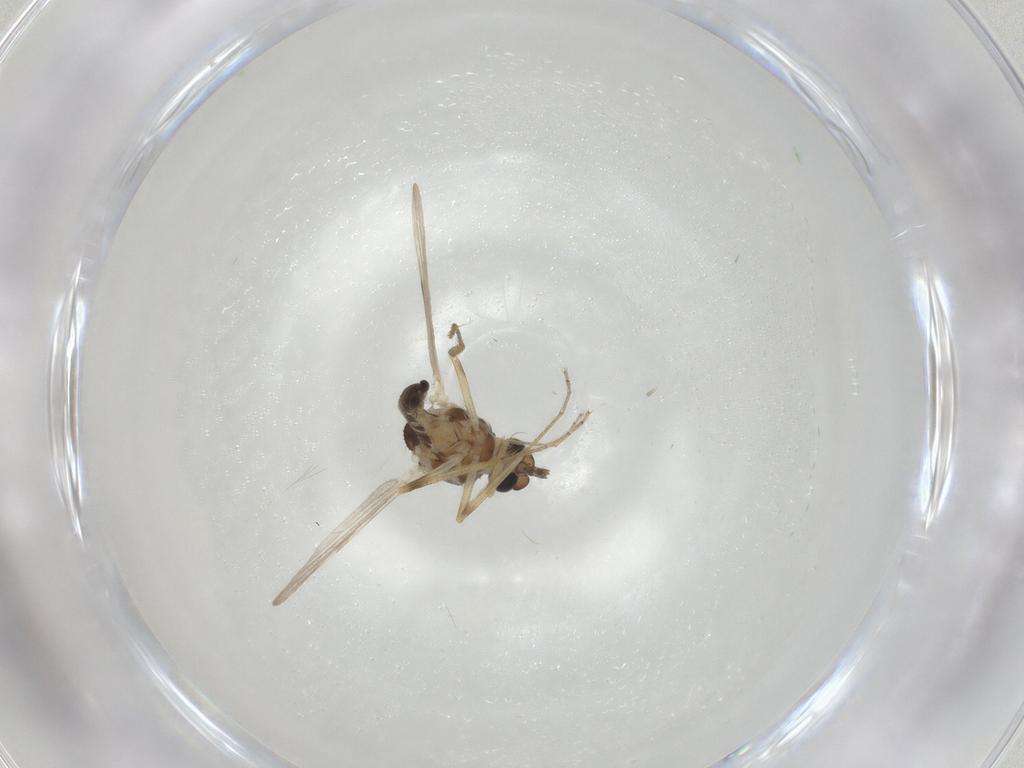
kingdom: Animalia
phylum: Arthropoda
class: Insecta
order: Diptera
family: Ceratopogonidae
